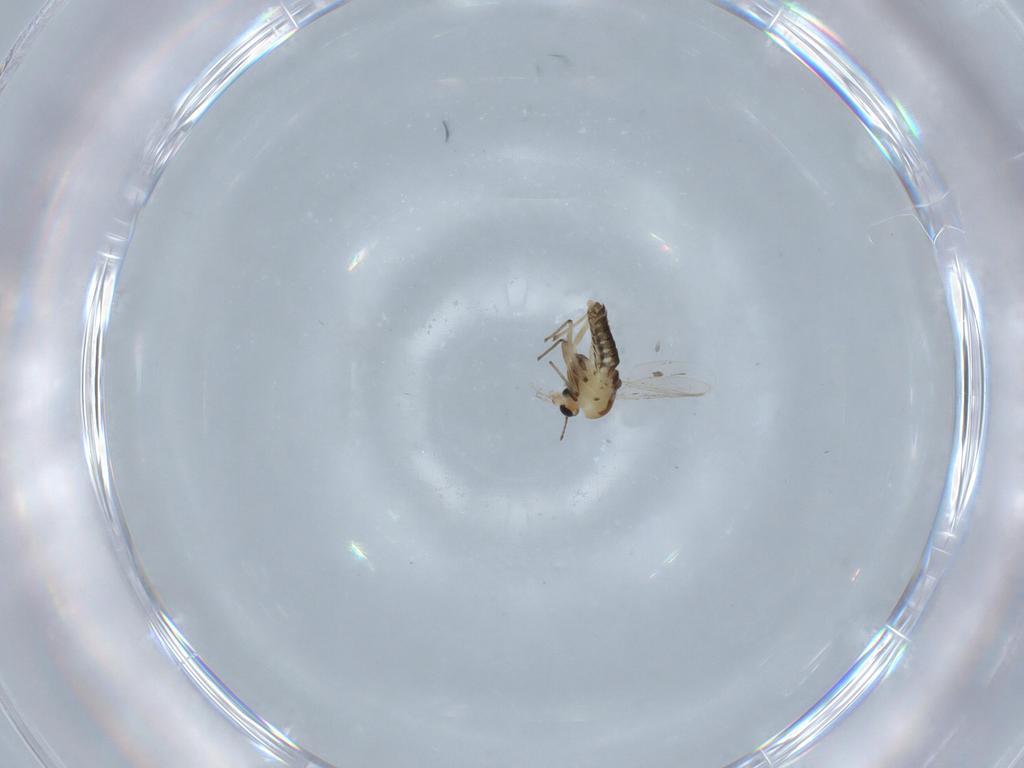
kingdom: Animalia
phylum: Arthropoda
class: Insecta
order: Diptera
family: Chironomidae
